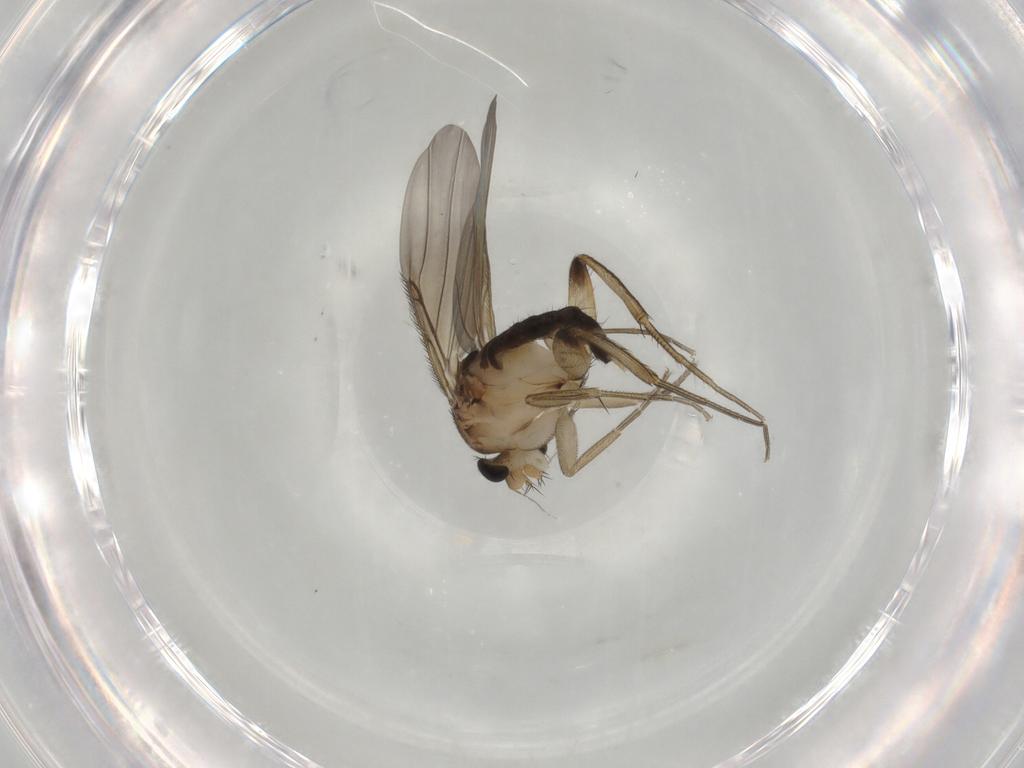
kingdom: Animalia
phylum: Arthropoda
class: Insecta
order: Diptera
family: Phoridae
